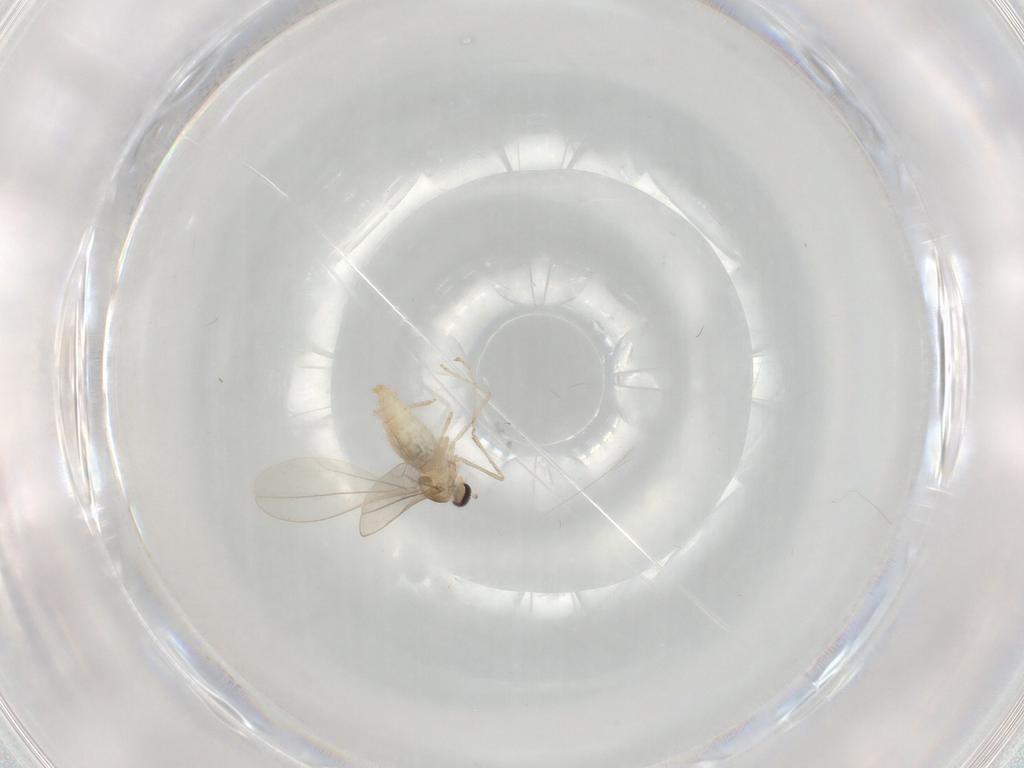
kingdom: Animalia
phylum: Arthropoda
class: Insecta
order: Diptera
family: Cecidomyiidae
